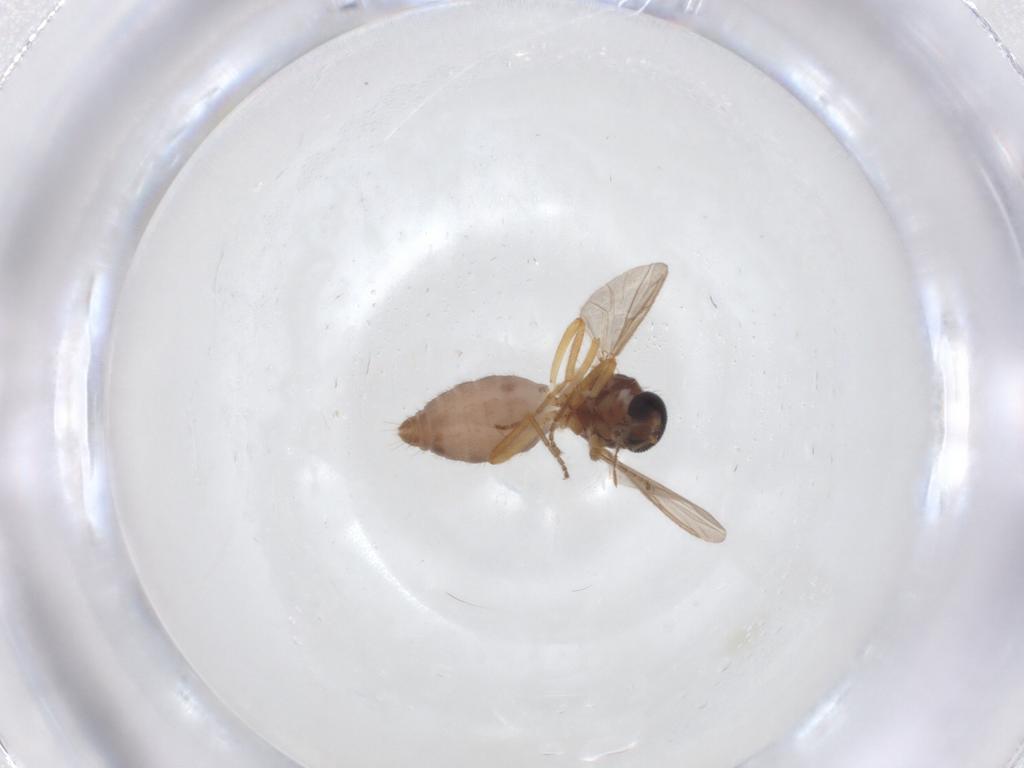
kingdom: Animalia
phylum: Arthropoda
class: Insecta
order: Diptera
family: Ceratopogonidae
